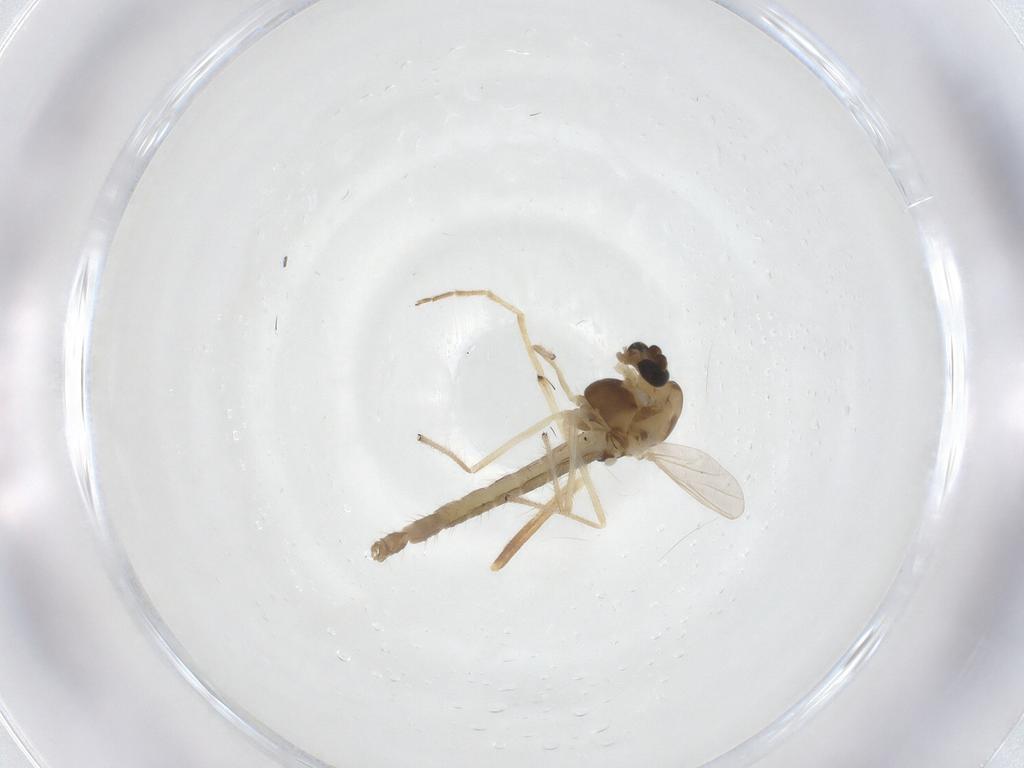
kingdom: Animalia
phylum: Arthropoda
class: Insecta
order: Diptera
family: Chironomidae
